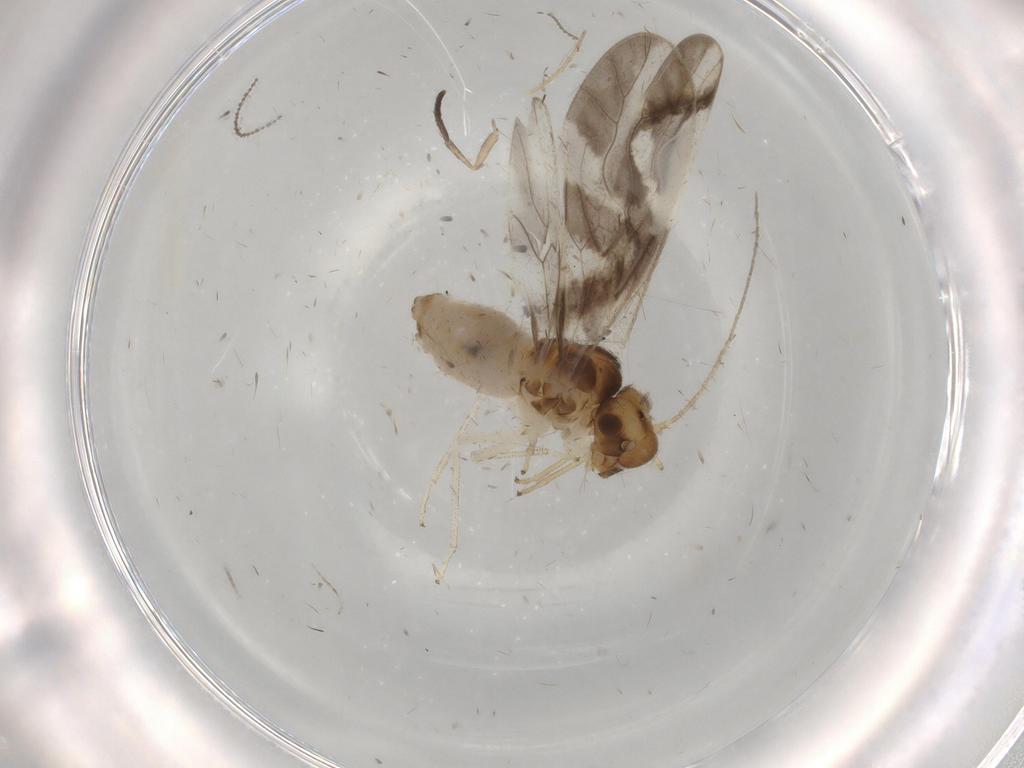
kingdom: Animalia
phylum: Arthropoda
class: Insecta
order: Psocodea
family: Caeciliusidae
